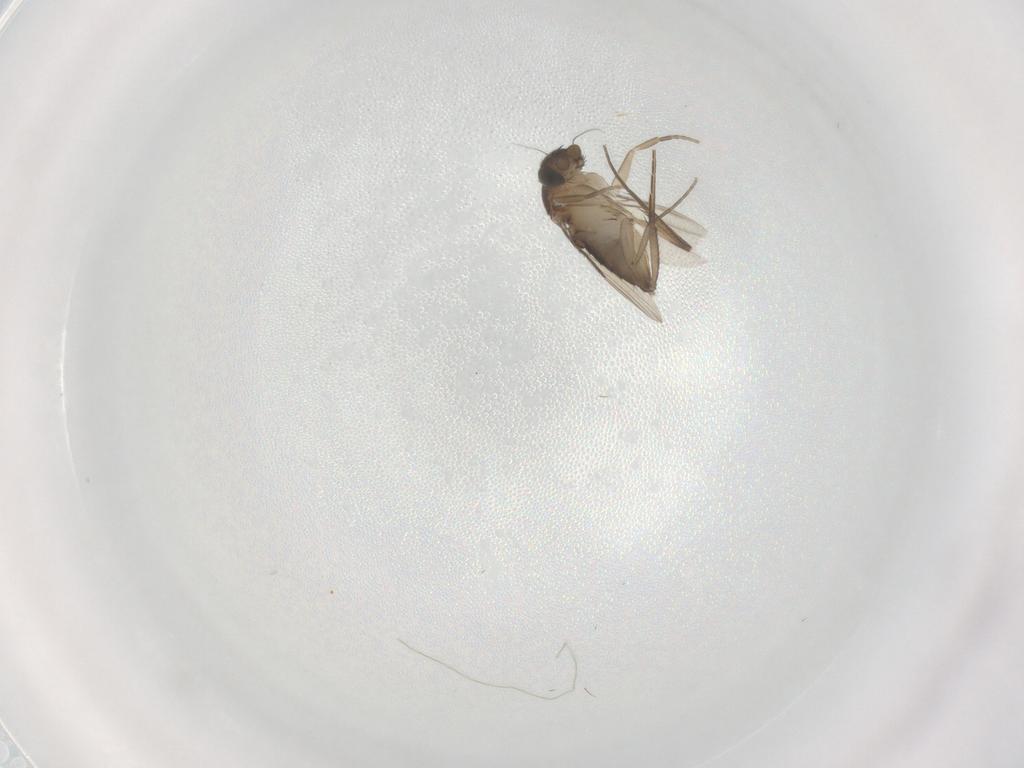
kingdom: Animalia
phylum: Arthropoda
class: Insecta
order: Diptera
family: Phoridae
